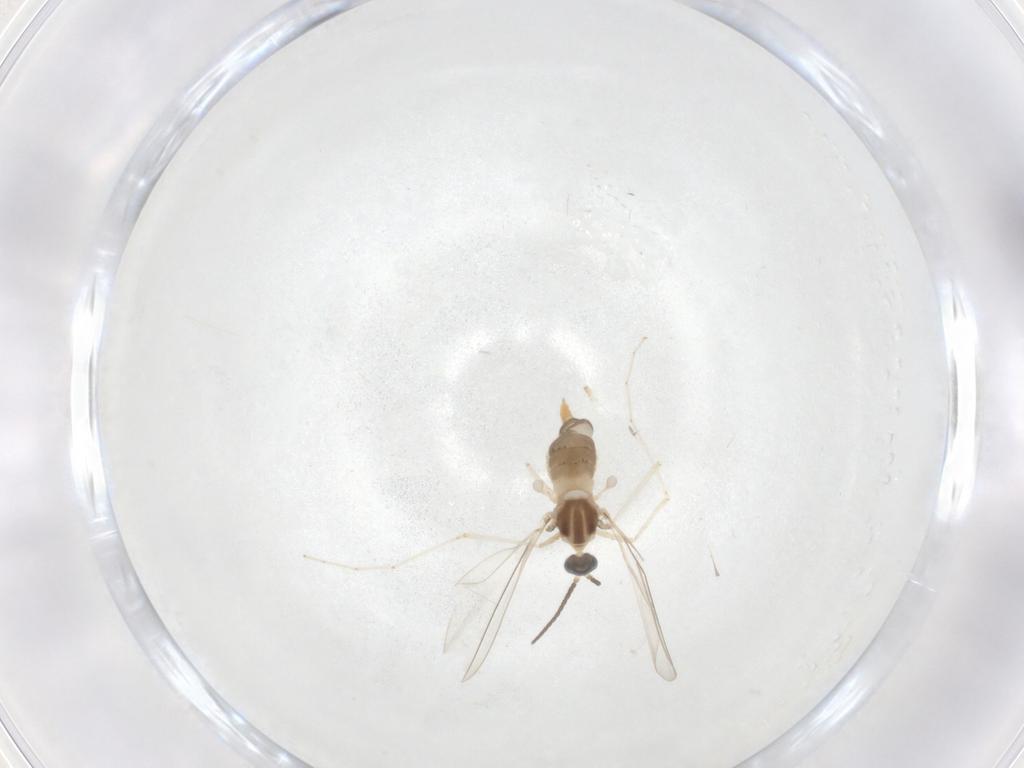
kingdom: Animalia
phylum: Arthropoda
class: Insecta
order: Diptera
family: Cecidomyiidae
